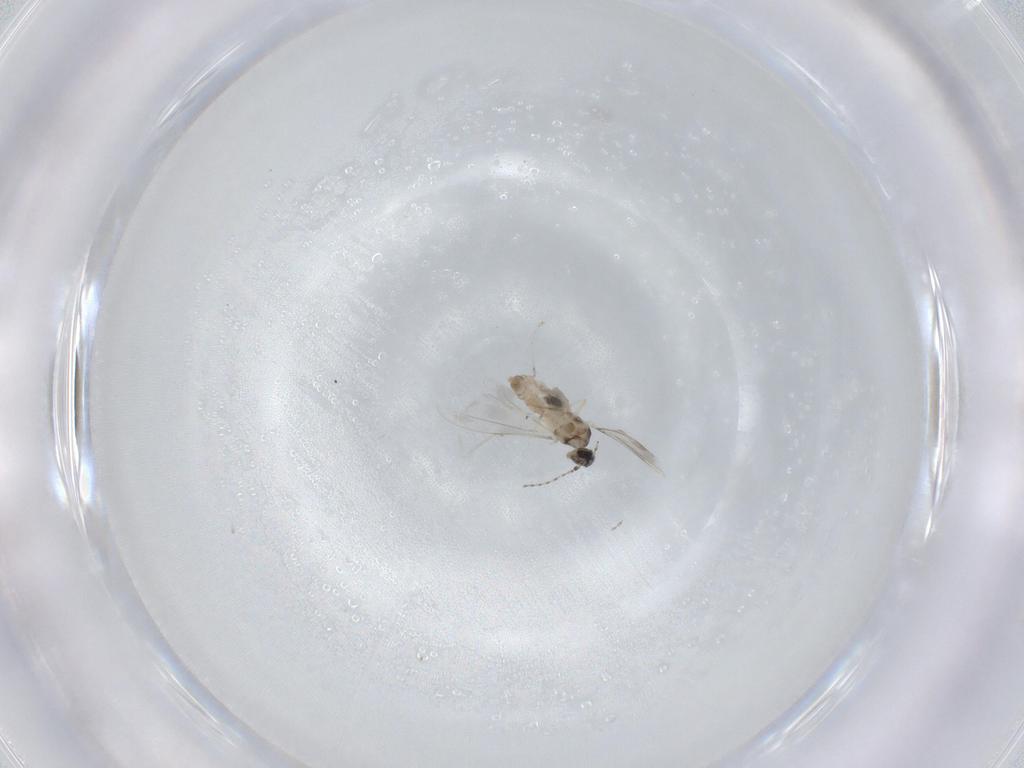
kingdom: Animalia
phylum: Arthropoda
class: Insecta
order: Diptera
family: Cecidomyiidae
